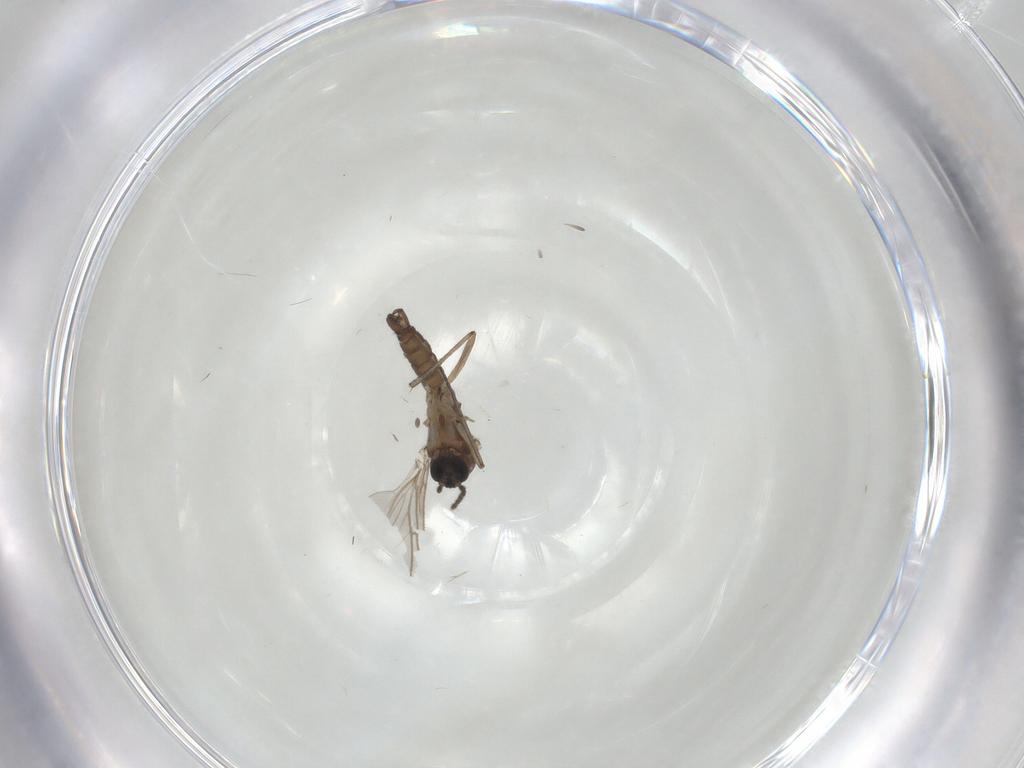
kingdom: Animalia
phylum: Arthropoda
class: Insecta
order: Diptera
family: Sciaridae
